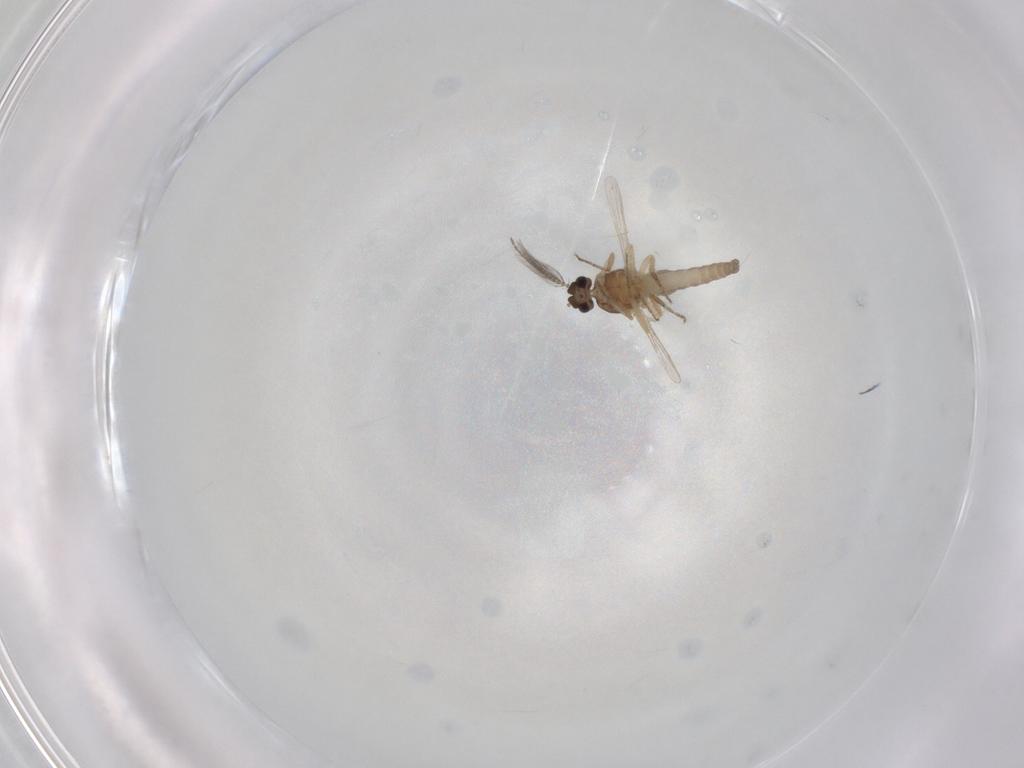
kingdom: Animalia
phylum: Arthropoda
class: Insecta
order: Diptera
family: Ceratopogonidae
